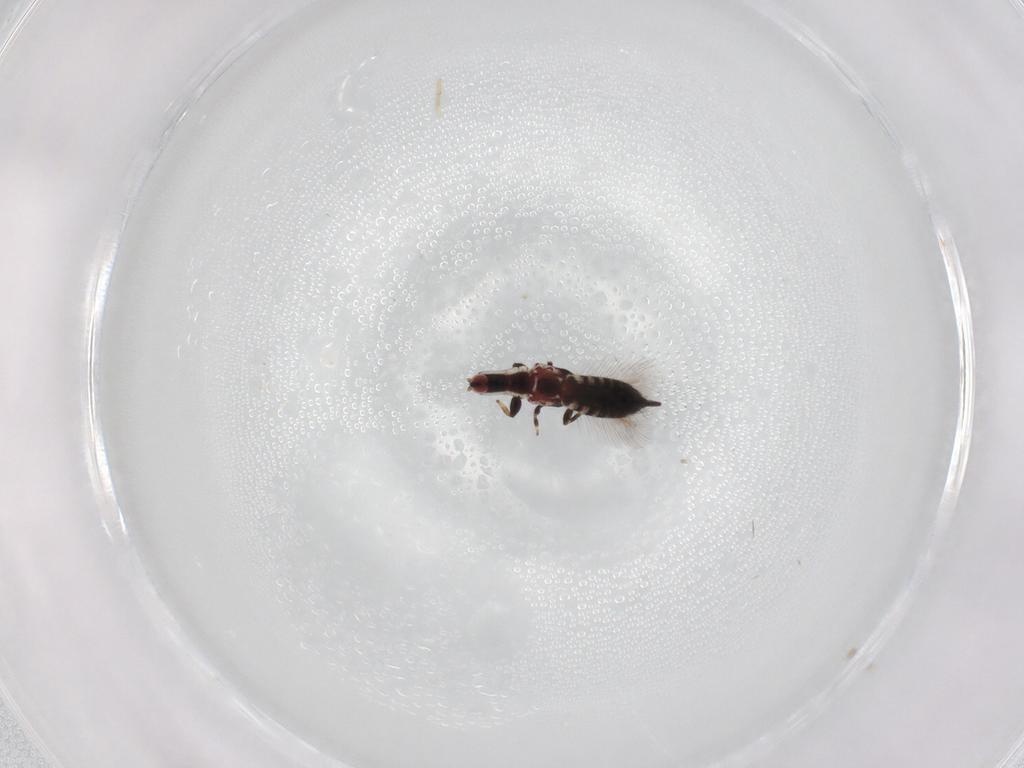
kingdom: Animalia
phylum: Arthropoda
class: Insecta
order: Thysanoptera
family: Phlaeothripidae
